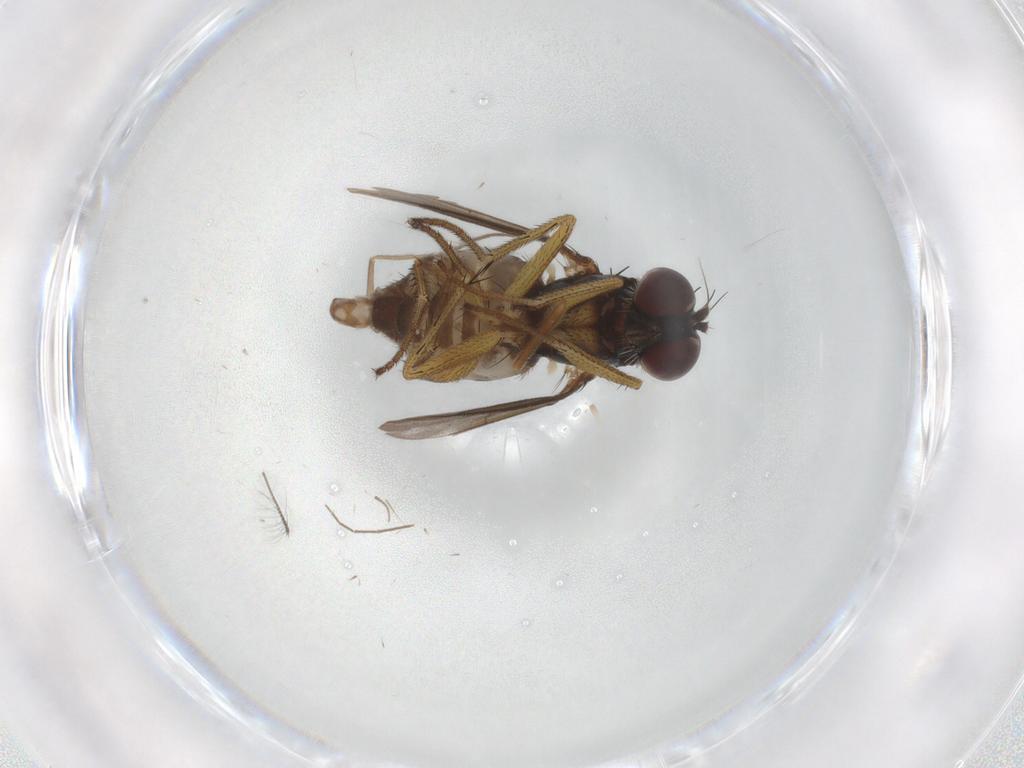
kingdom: Animalia
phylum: Arthropoda
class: Insecta
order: Diptera
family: Dolichopodidae
